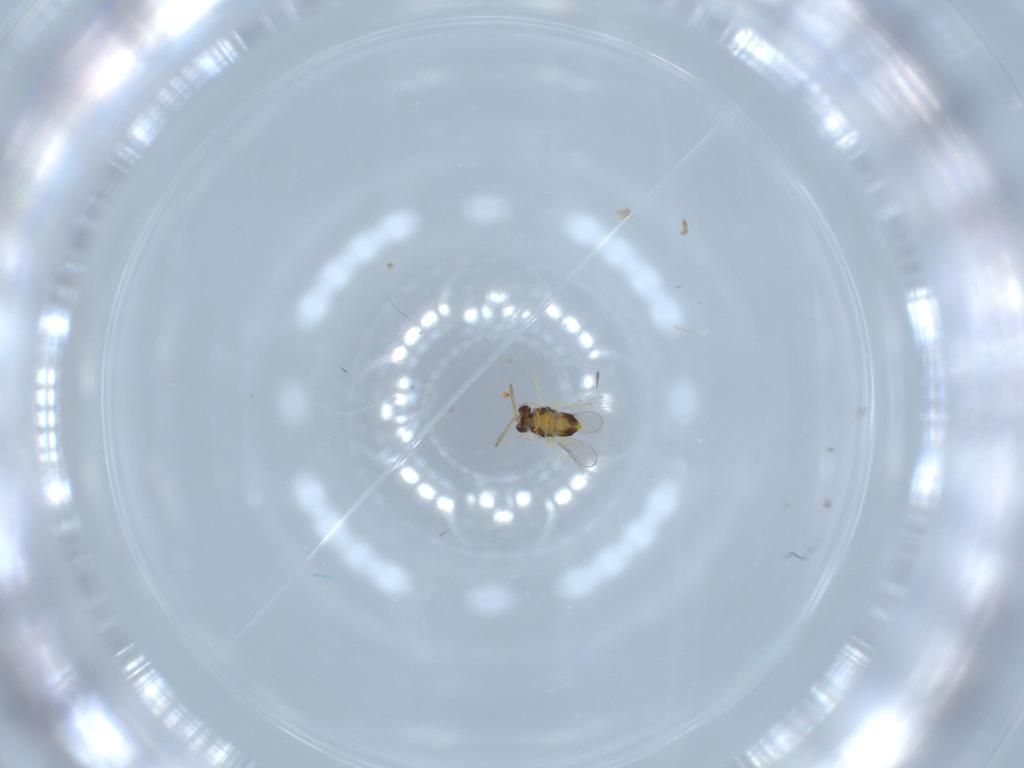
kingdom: Animalia
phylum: Arthropoda
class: Insecta
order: Hymenoptera
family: Aphelinidae
